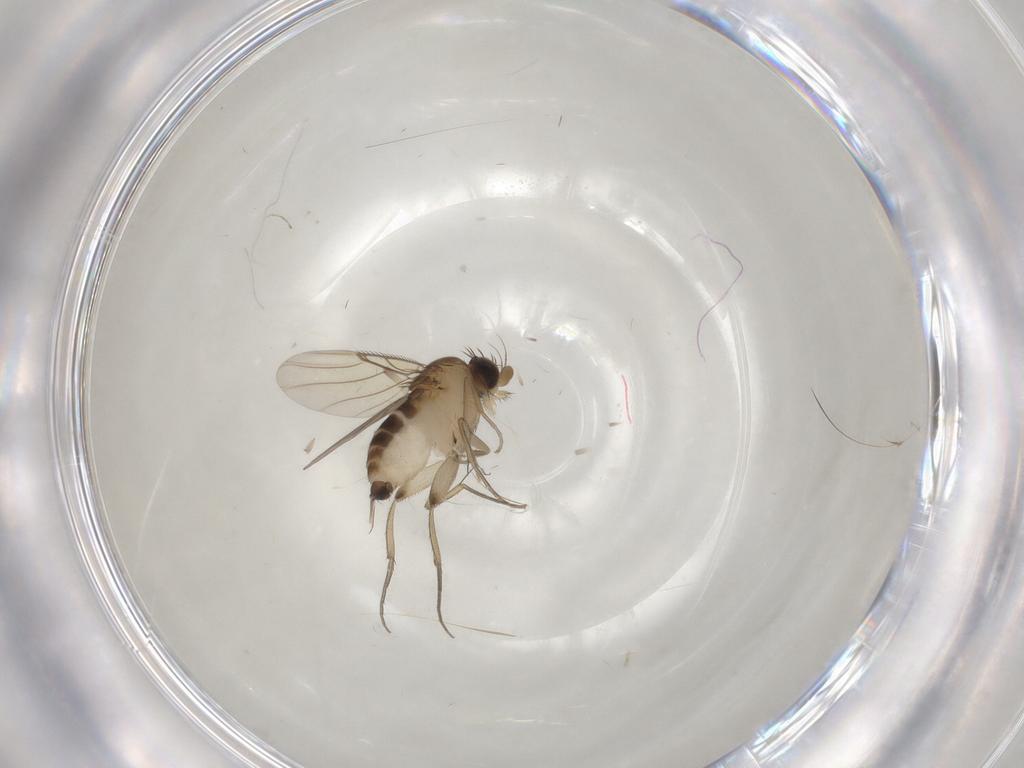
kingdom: Animalia
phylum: Arthropoda
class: Insecta
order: Diptera
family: Phoridae
